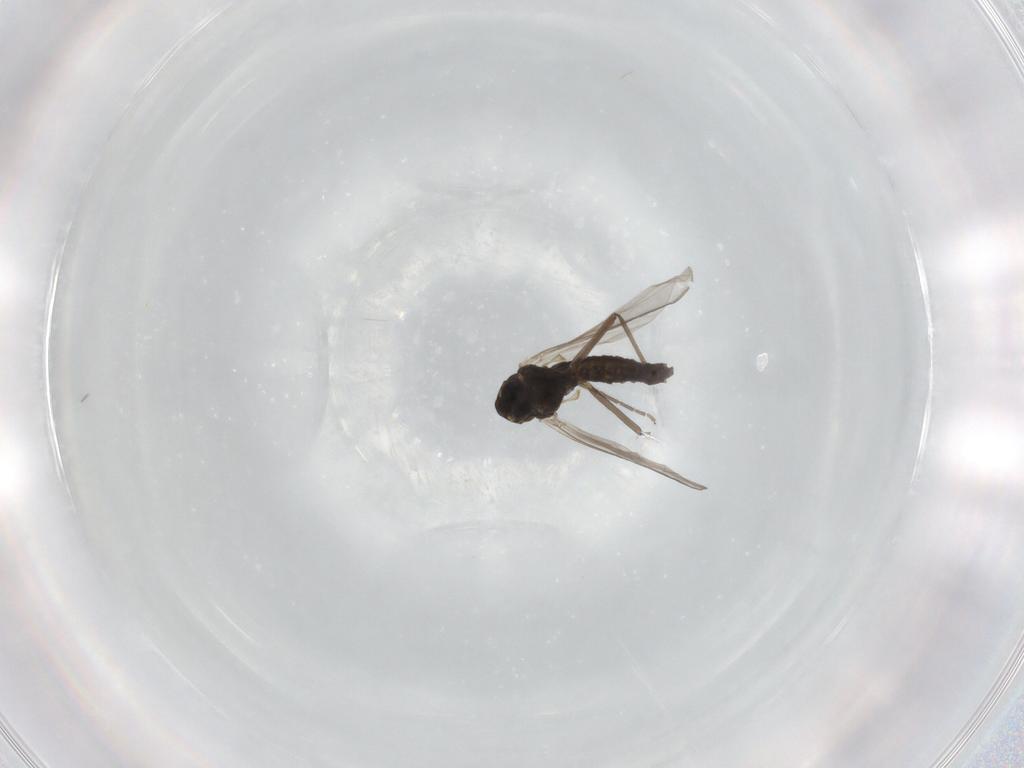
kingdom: Animalia
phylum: Arthropoda
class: Insecta
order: Diptera
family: Chironomidae
